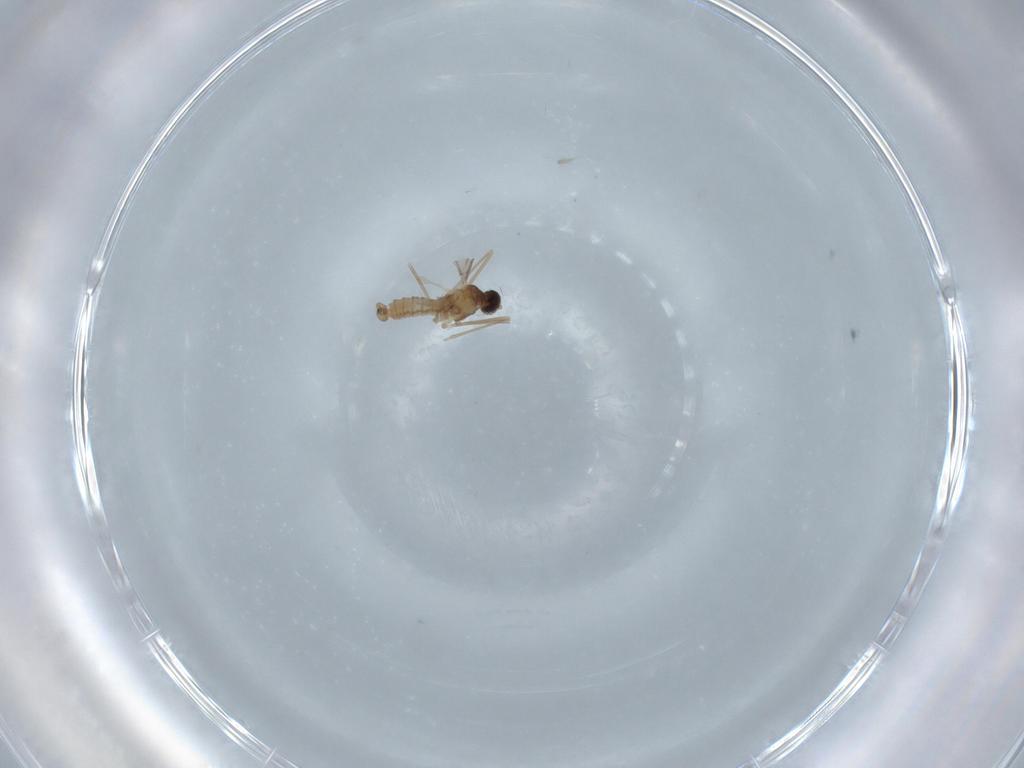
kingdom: Animalia
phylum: Arthropoda
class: Insecta
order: Diptera
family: Cecidomyiidae
